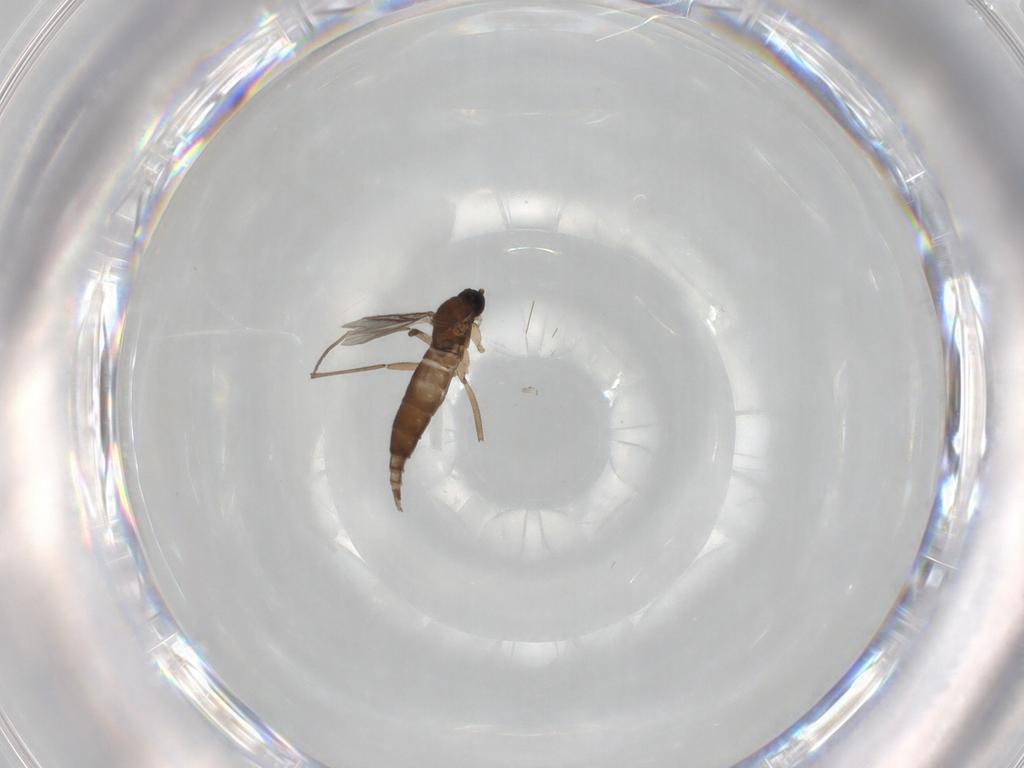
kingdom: Animalia
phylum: Arthropoda
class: Insecta
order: Diptera
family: Sciaridae
